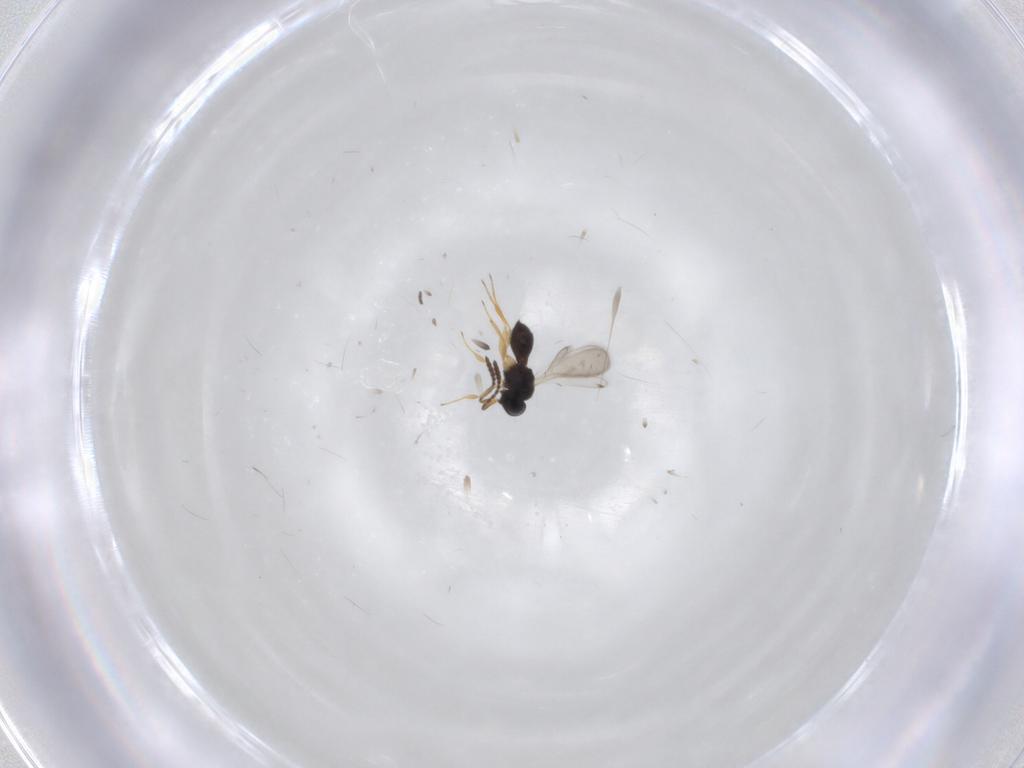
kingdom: Animalia
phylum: Arthropoda
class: Insecta
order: Hymenoptera
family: Scelionidae
